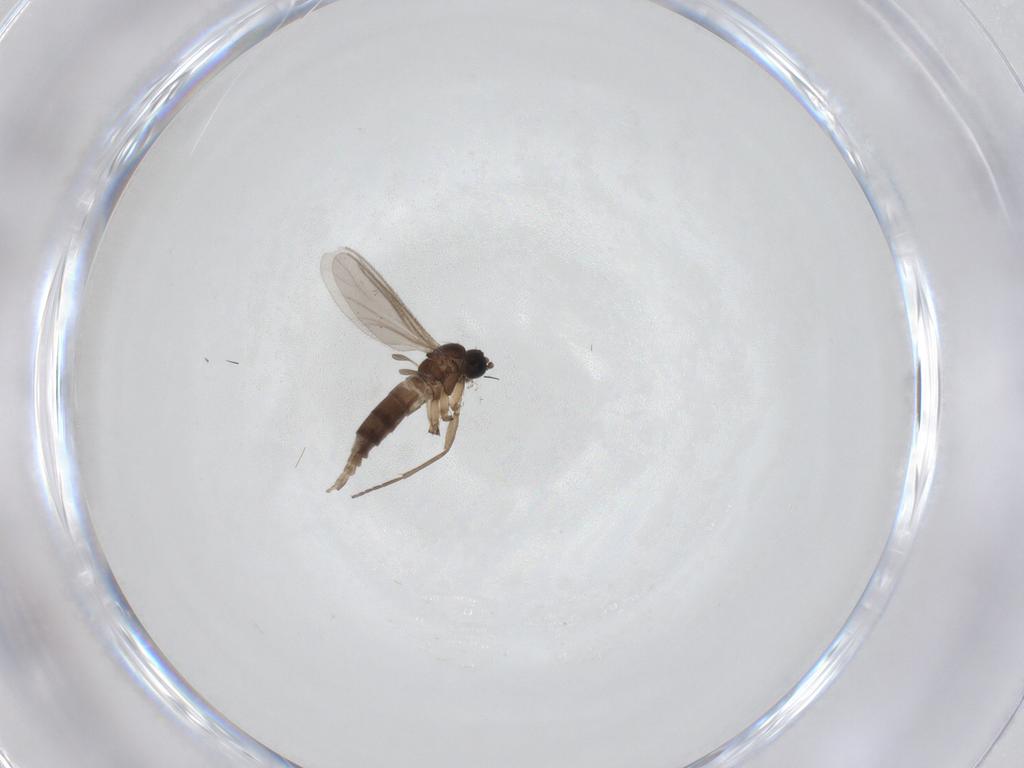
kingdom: Animalia
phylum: Arthropoda
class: Insecta
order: Diptera
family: Sciaridae
